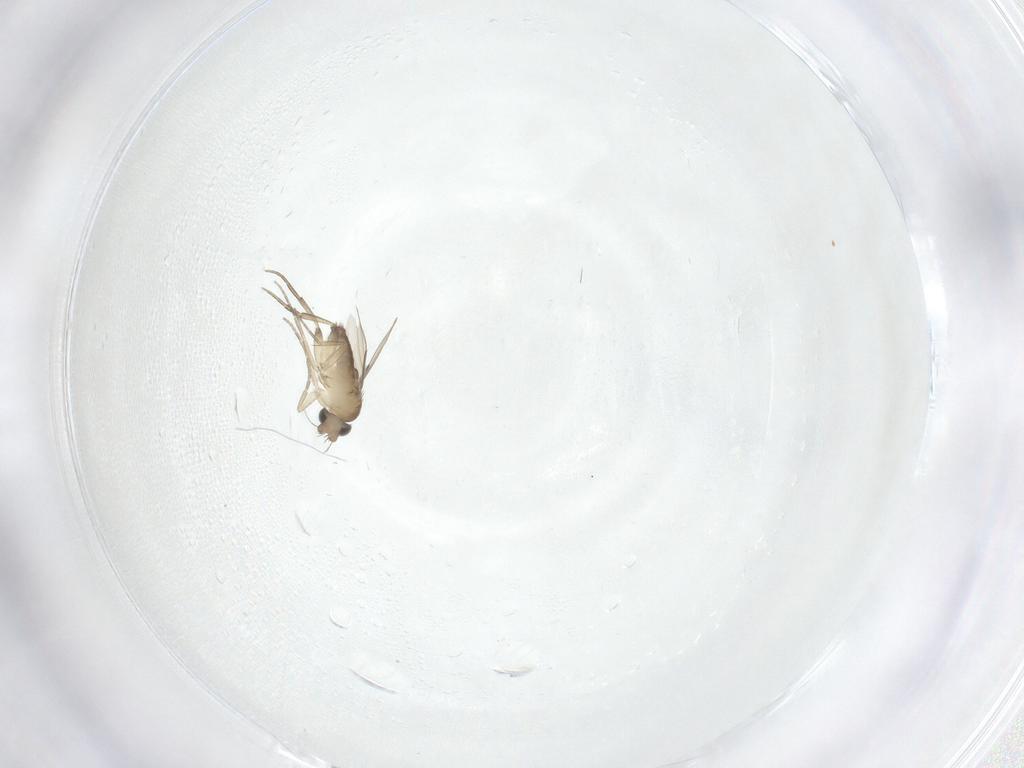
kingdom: Animalia
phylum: Arthropoda
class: Insecta
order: Diptera
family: Phoridae
